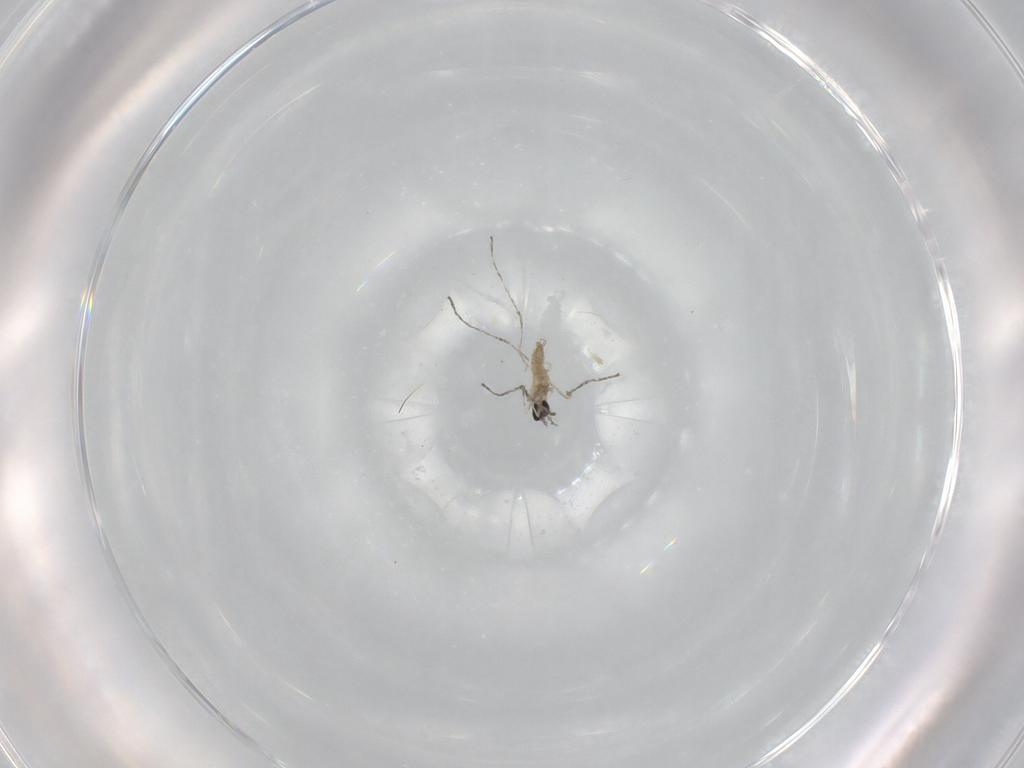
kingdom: Animalia
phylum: Arthropoda
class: Insecta
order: Diptera
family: Cecidomyiidae
